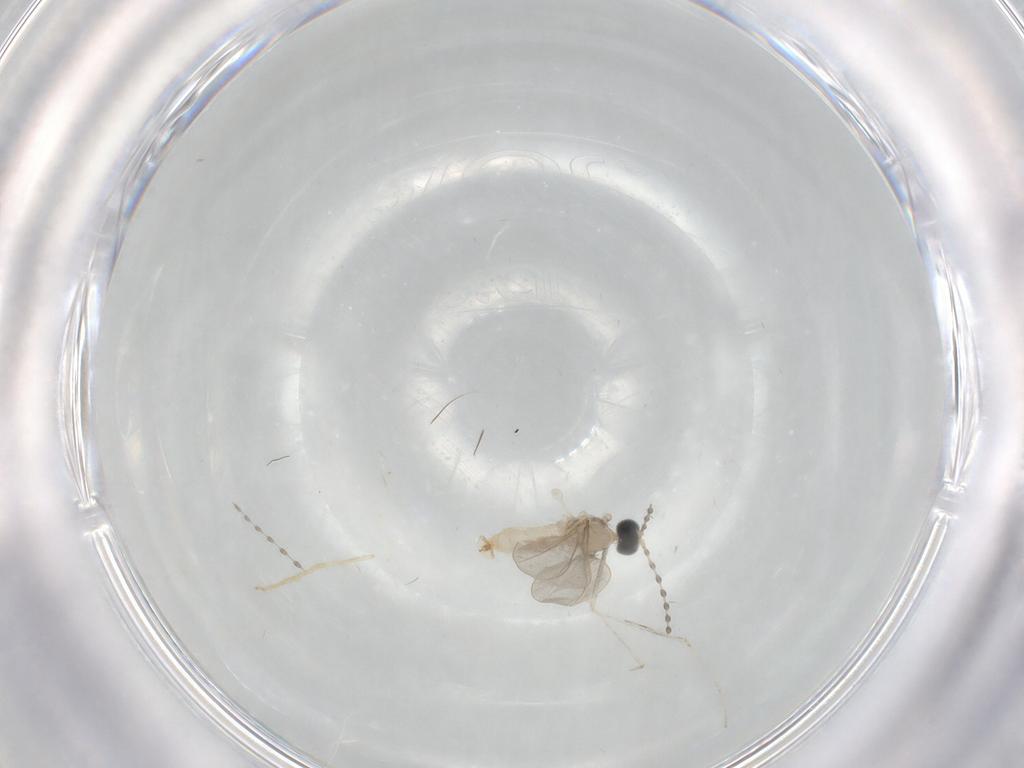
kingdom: Animalia
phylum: Arthropoda
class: Insecta
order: Diptera
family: Cecidomyiidae
